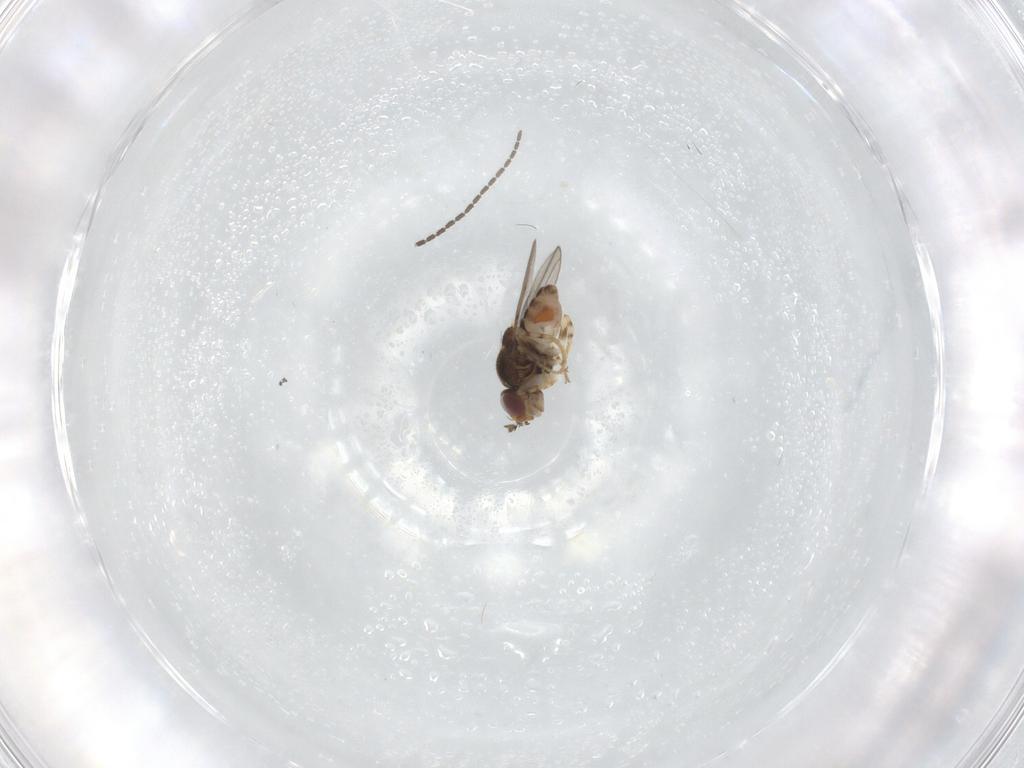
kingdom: Animalia
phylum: Arthropoda
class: Insecta
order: Diptera
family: Chloropidae
